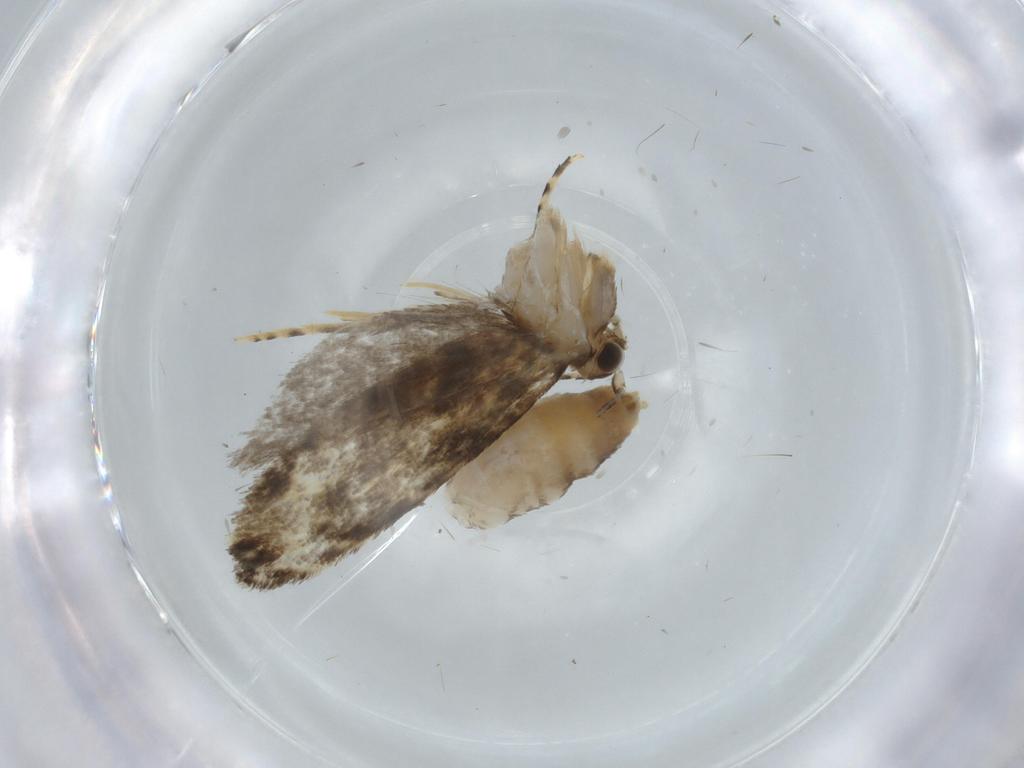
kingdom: Animalia
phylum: Arthropoda
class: Insecta
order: Lepidoptera
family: Tineidae
